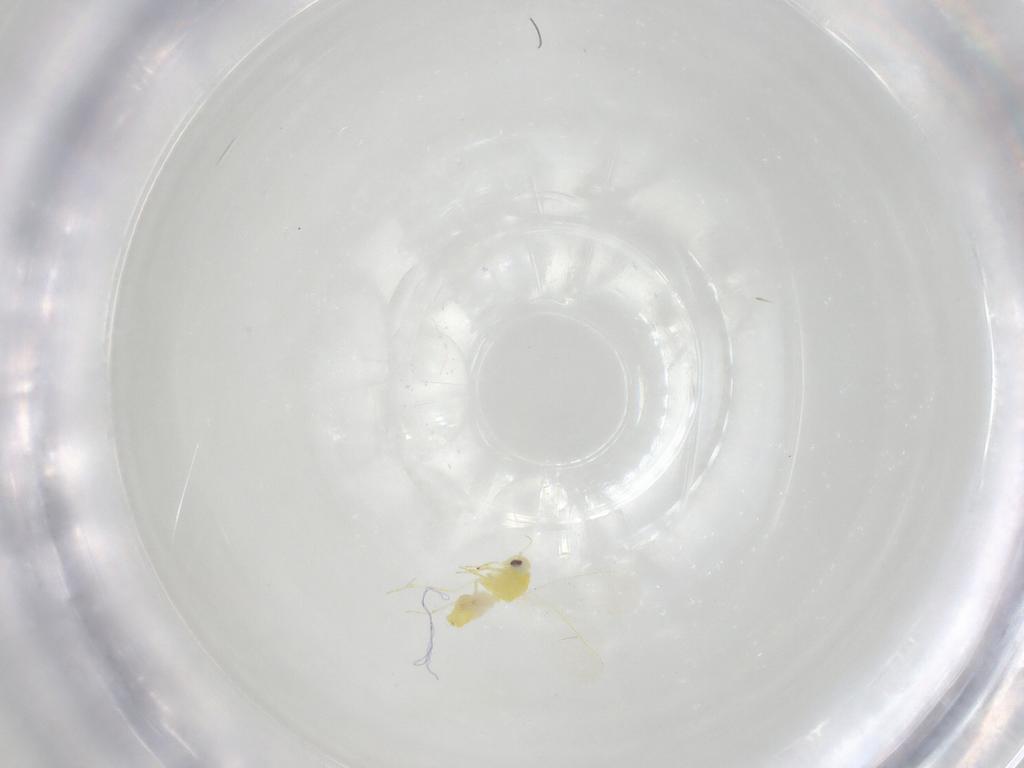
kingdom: Animalia
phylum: Arthropoda
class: Insecta
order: Hemiptera
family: Aleyrodidae
